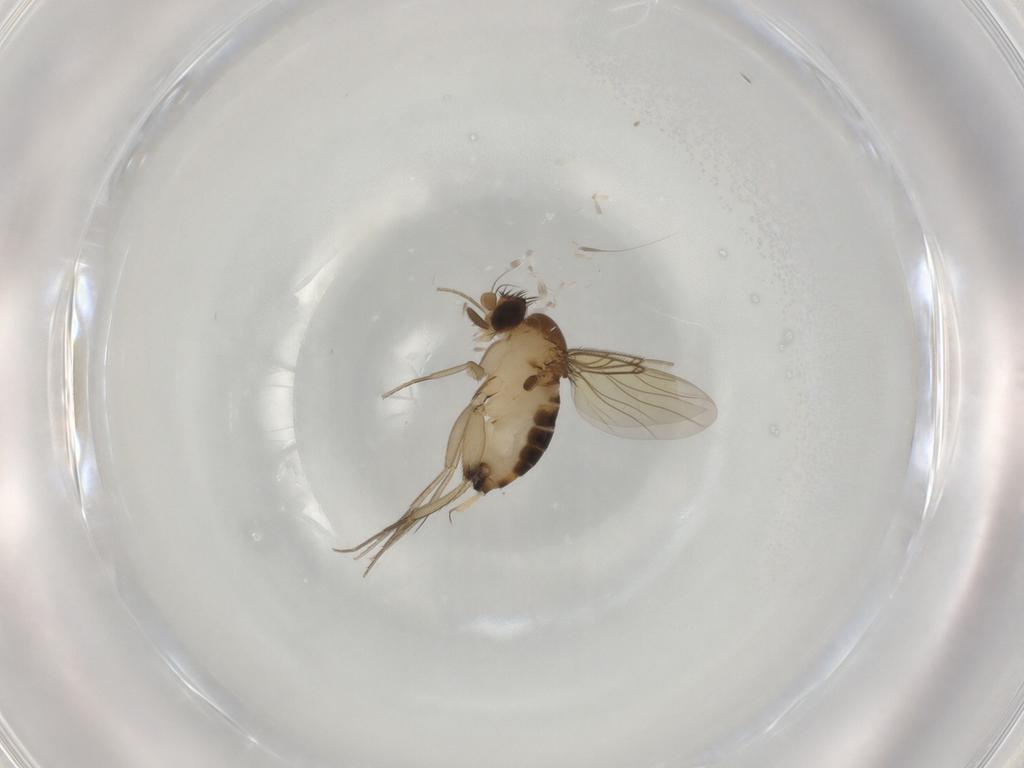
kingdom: Animalia
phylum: Arthropoda
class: Insecta
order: Diptera
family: Phoridae
